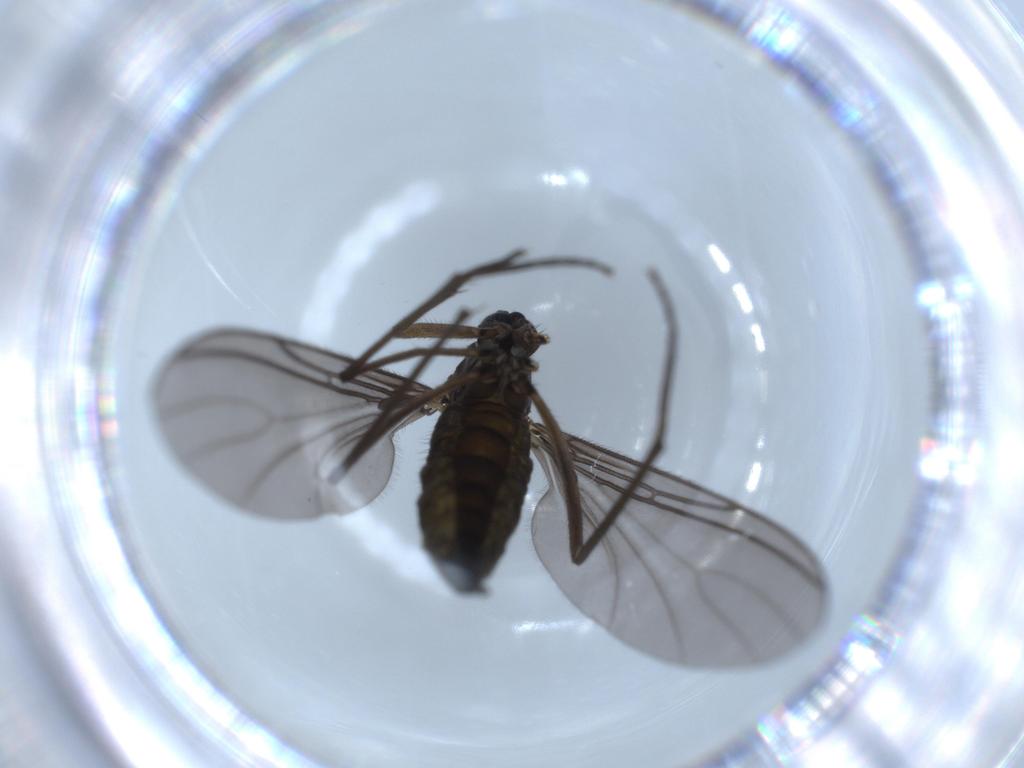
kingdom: Animalia
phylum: Arthropoda
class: Insecta
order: Diptera
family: Sciaridae
